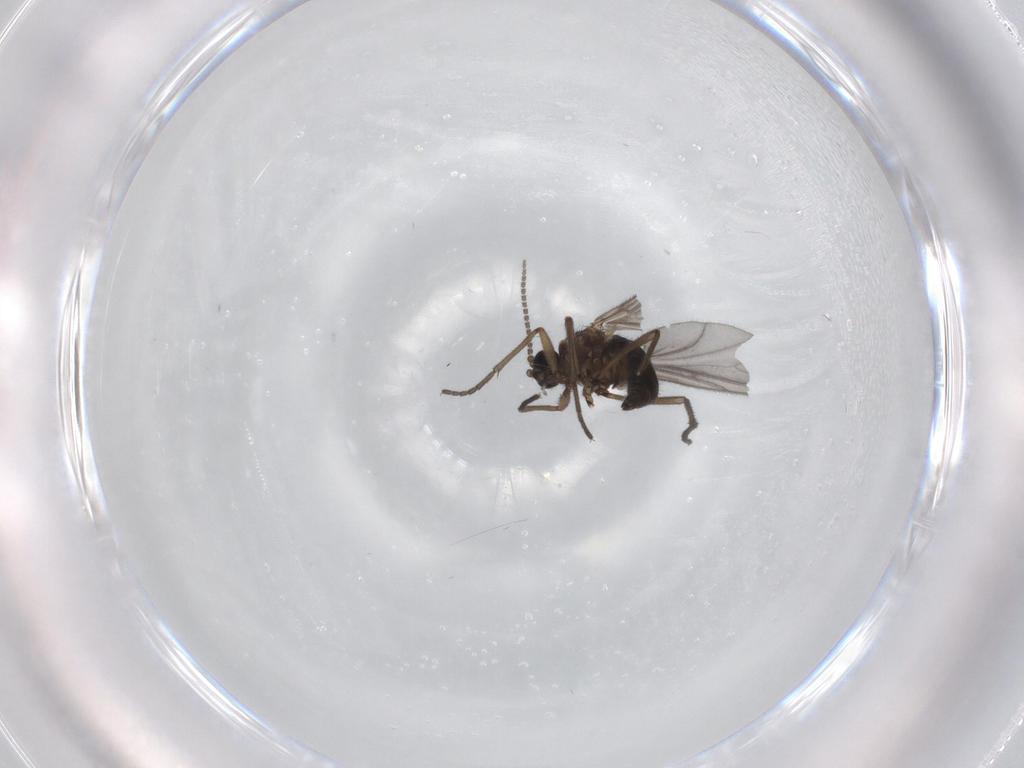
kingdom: Animalia
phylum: Arthropoda
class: Insecta
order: Diptera
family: Sciaridae
